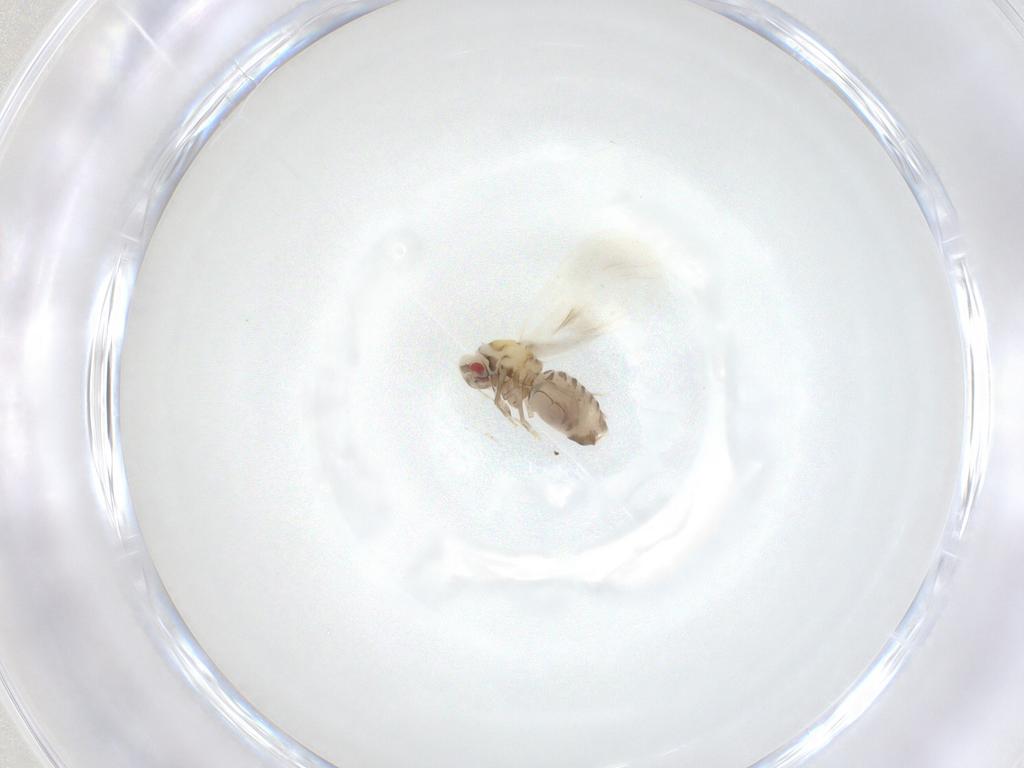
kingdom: Animalia
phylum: Arthropoda
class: Insecta
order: Hemiptera
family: Aleyrodidae
